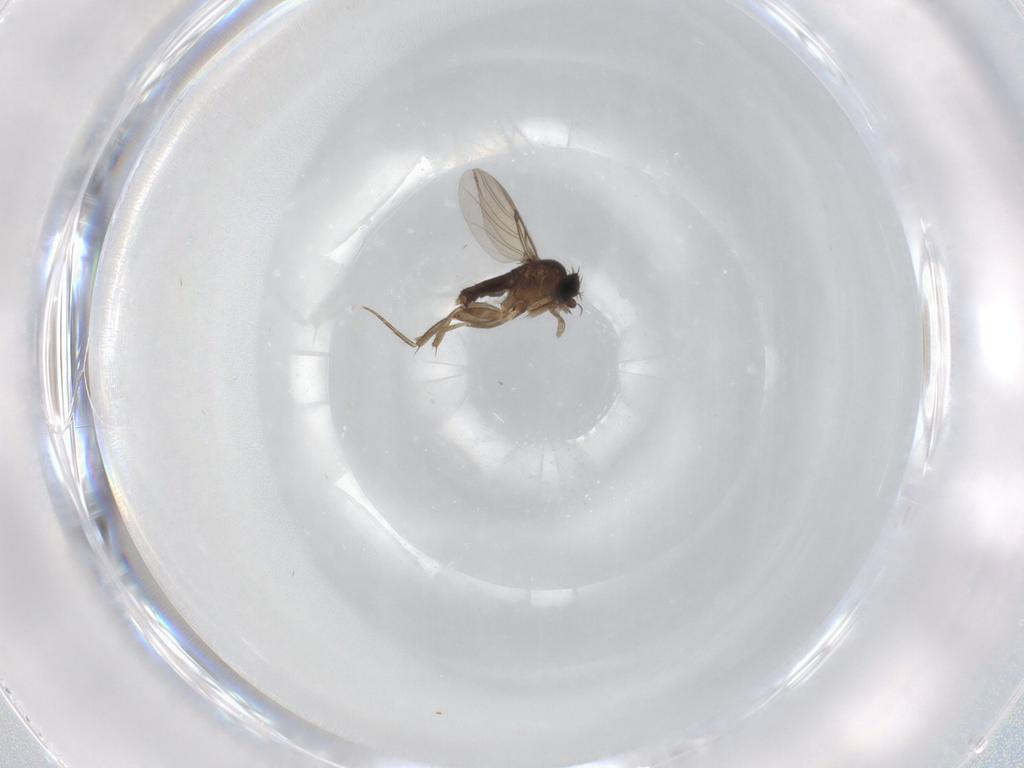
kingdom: Animalia
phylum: Arthropoda
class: Insecta
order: Diptera
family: Phoridae
